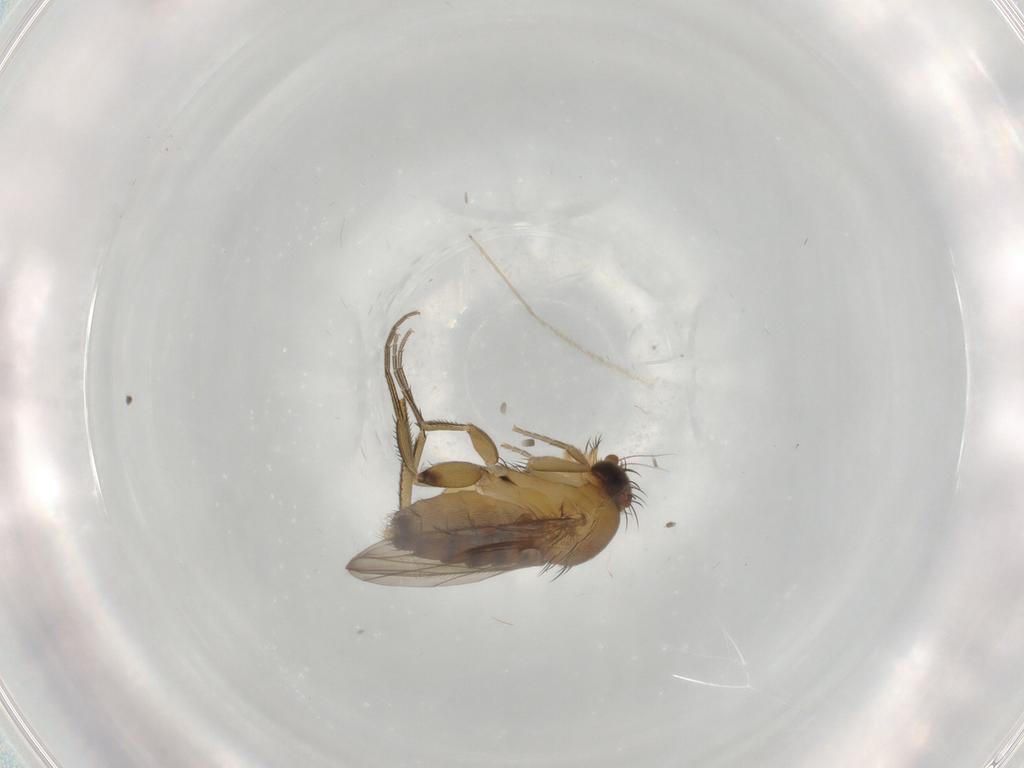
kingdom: Animalia
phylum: Arthropoda
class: Insecta
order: Diptera
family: Phoridae
